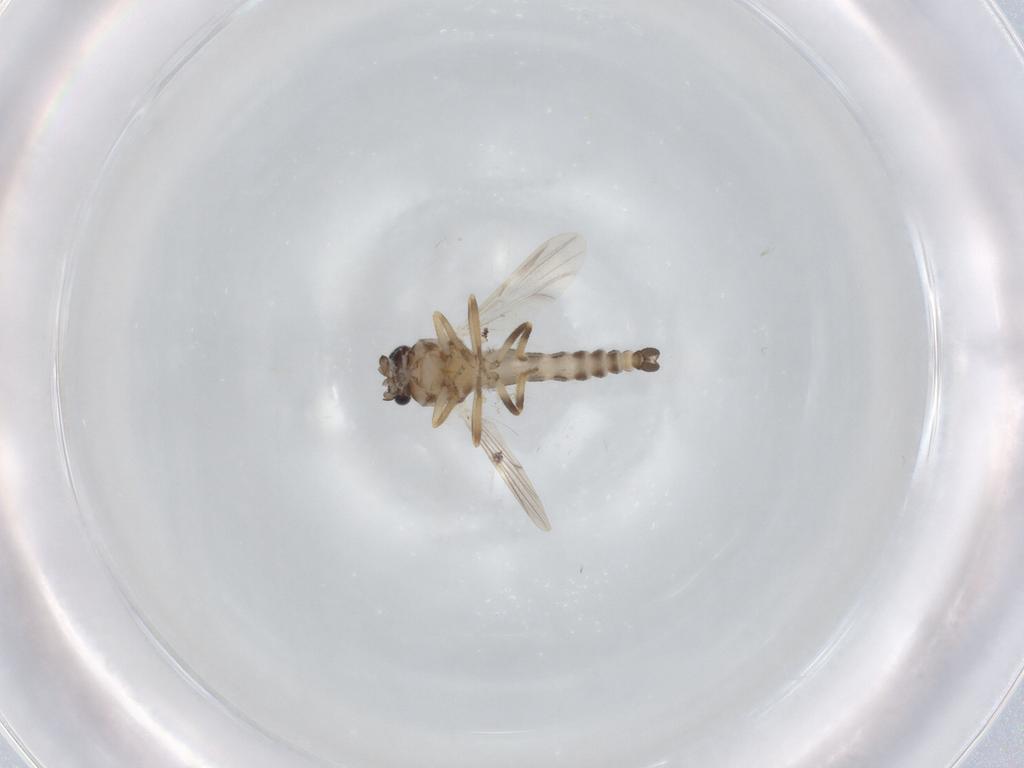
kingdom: Animalia
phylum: Arthropoda
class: Insecta
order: Diptera
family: Ceratopogonidae
